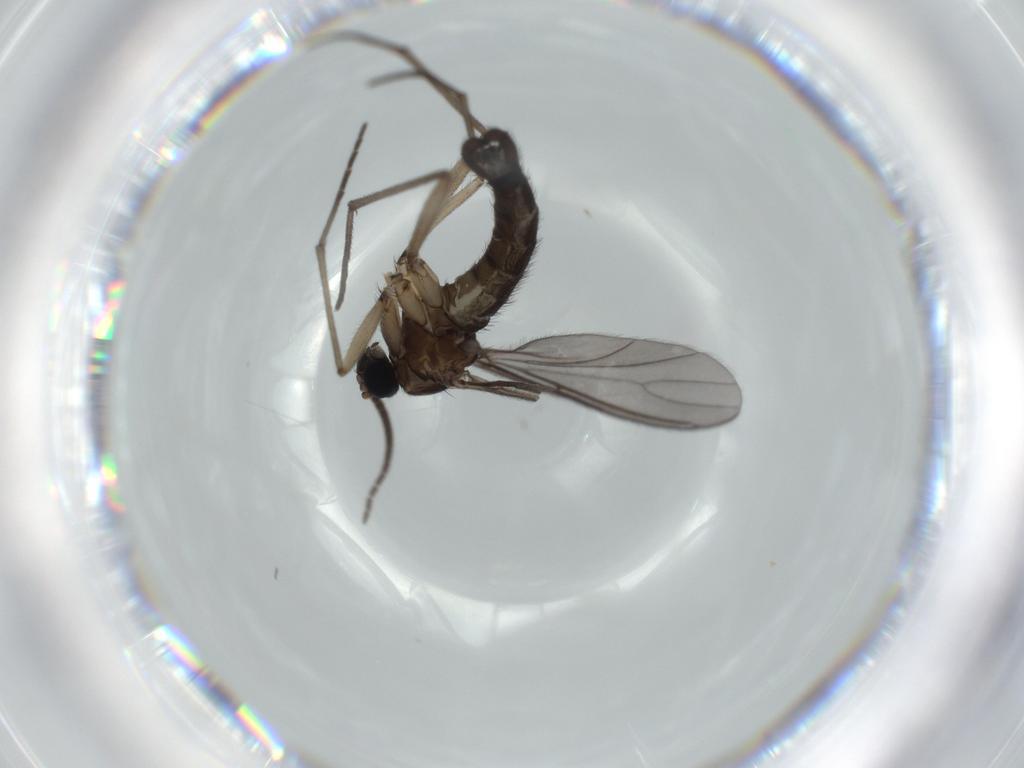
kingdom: Animalia
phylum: Arthropoda
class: Insecta
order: Diptera
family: Sciaridae
